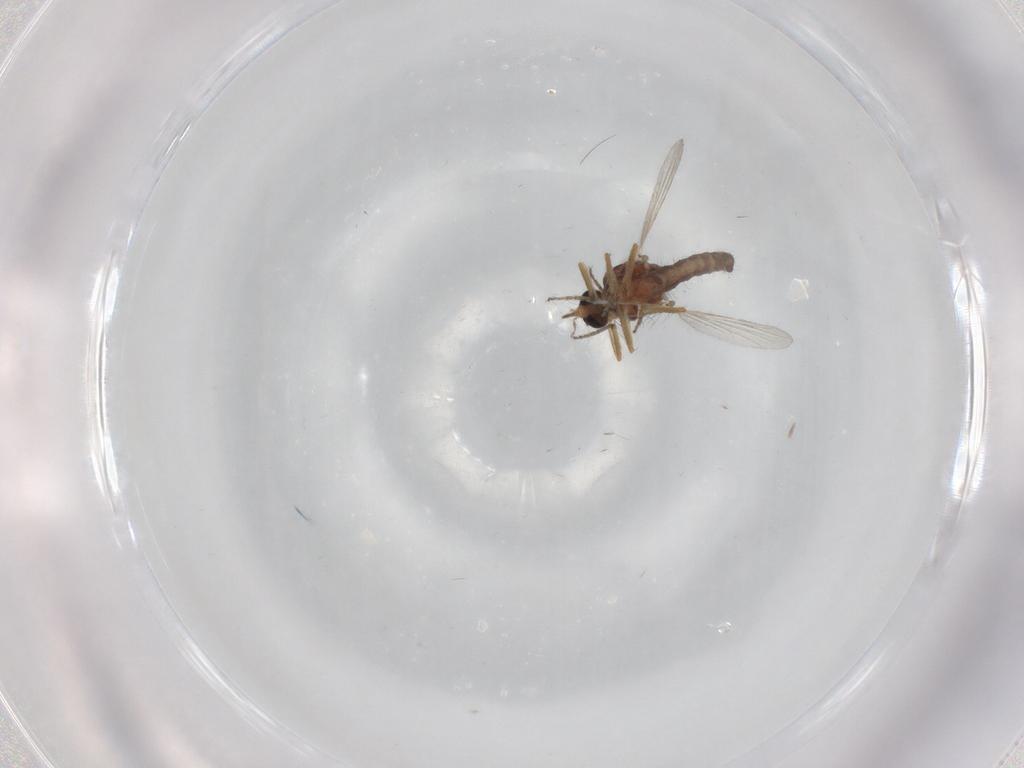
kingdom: Animalia
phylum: Arthropoda
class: Insecta
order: Diptera
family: Ceratopogonidae
